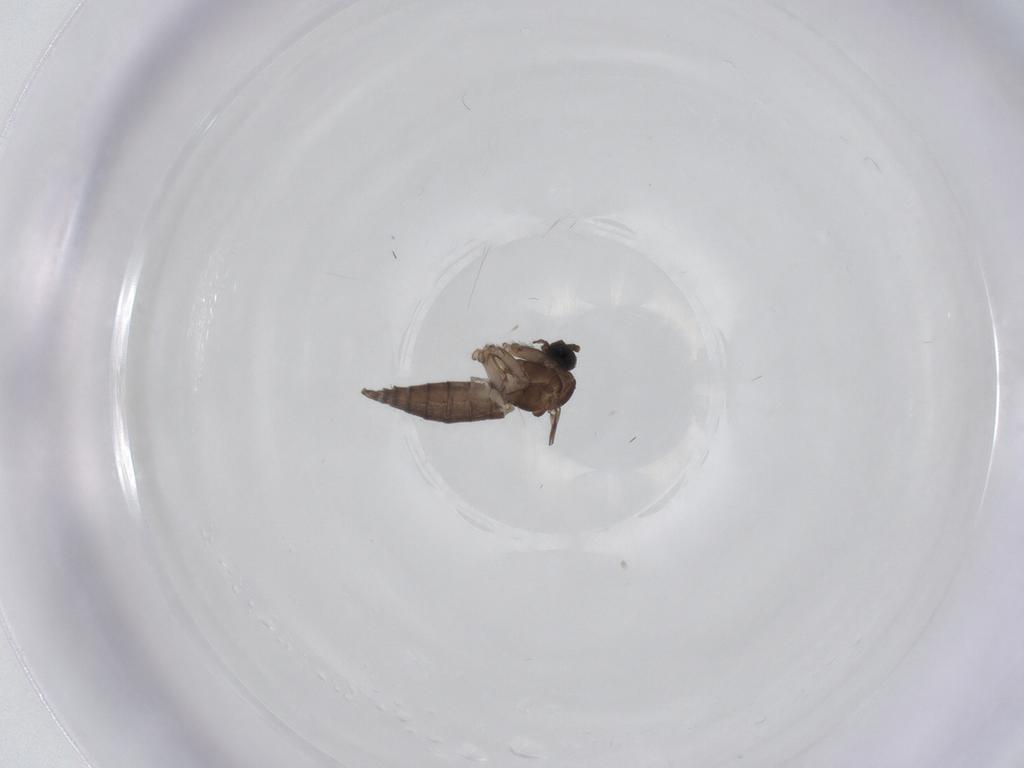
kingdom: Animalia
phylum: Arthropoda
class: Insecta
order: Diptera
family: Sciaridae
